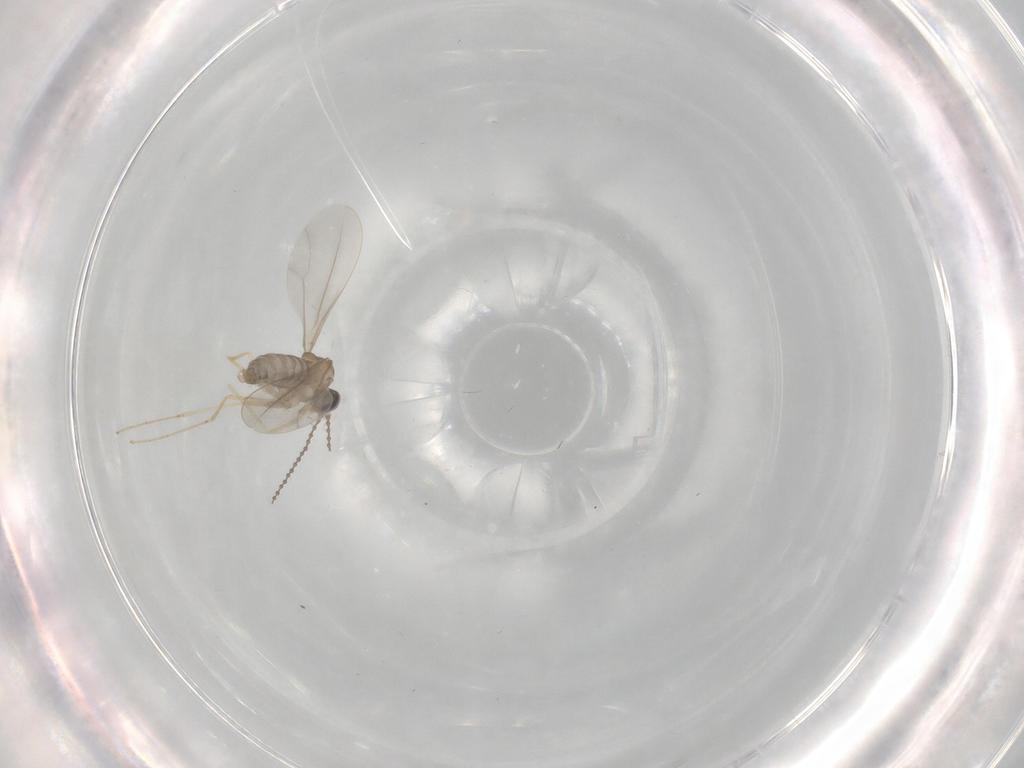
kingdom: Animalia
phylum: Arthropoda
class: Insecta
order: Diptera
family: Cecidomyiidae
